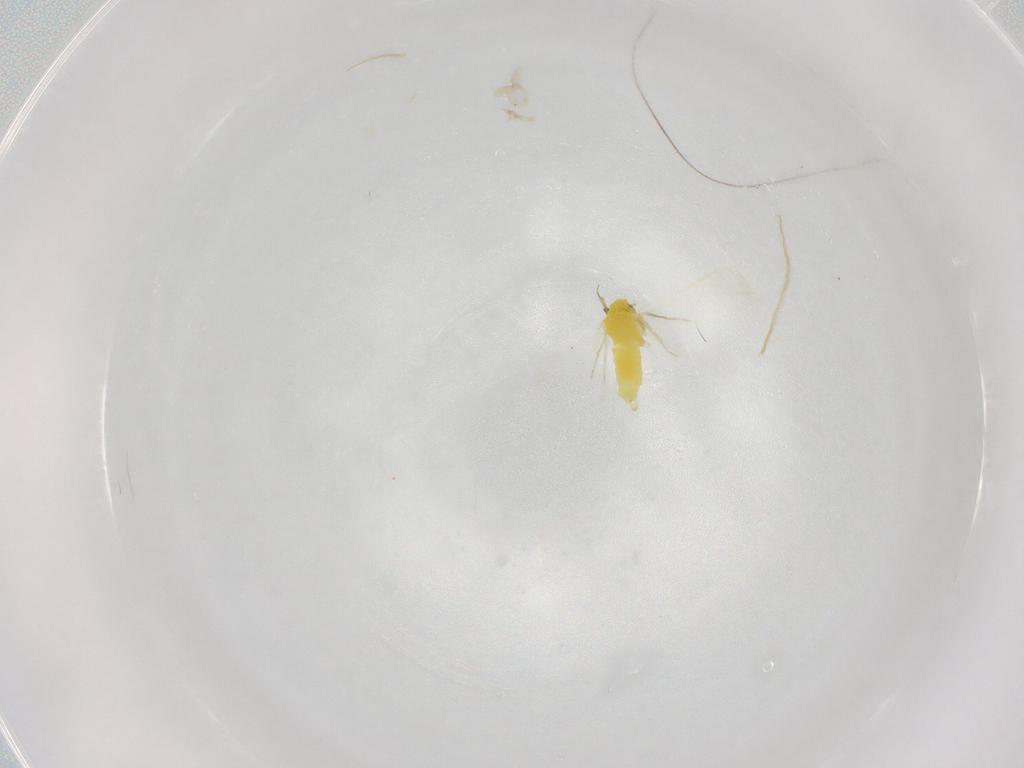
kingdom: Animalia
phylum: Arthropoda
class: Insecta
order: Hemiptera
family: Aleyrodidae
